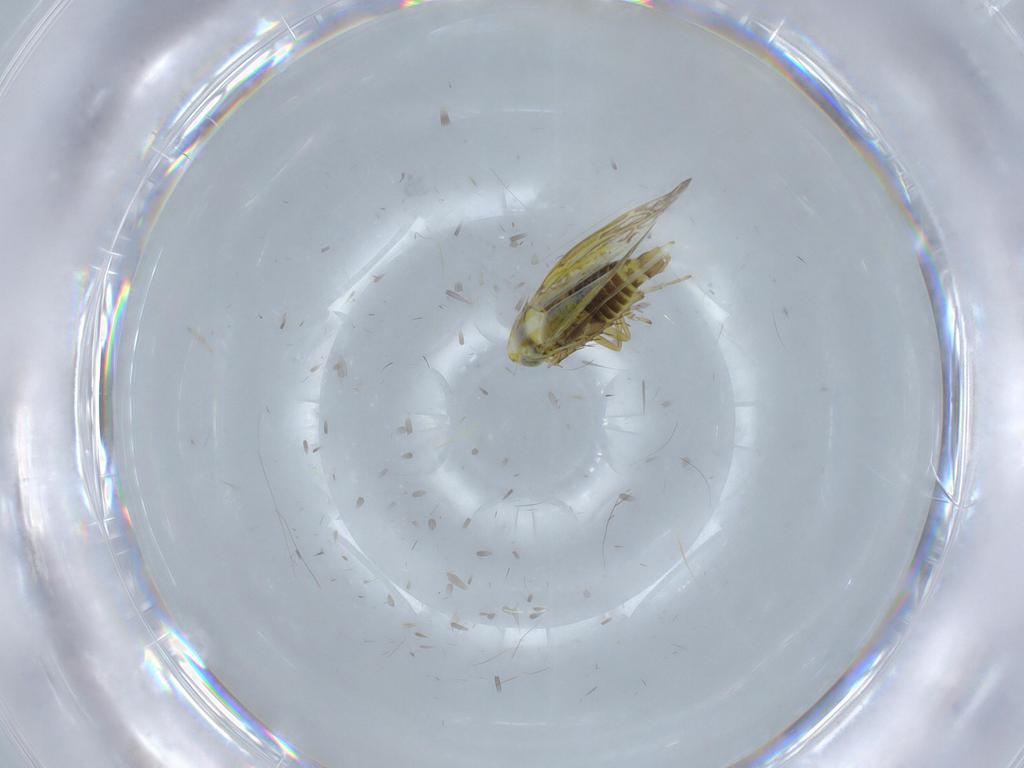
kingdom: Animalia
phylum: Arthropoda
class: Insecta
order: Hemiptera
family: Cicadellidae
